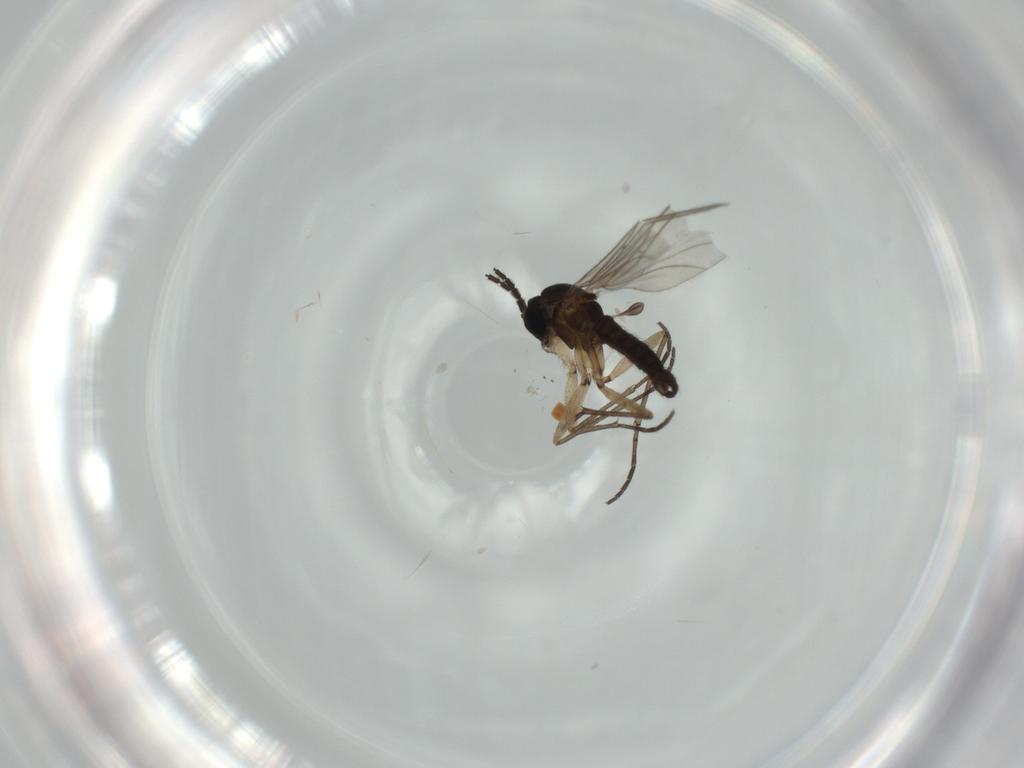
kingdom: Animalia
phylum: Arthropoda
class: Insecta
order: Diptera
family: Sciaridae
